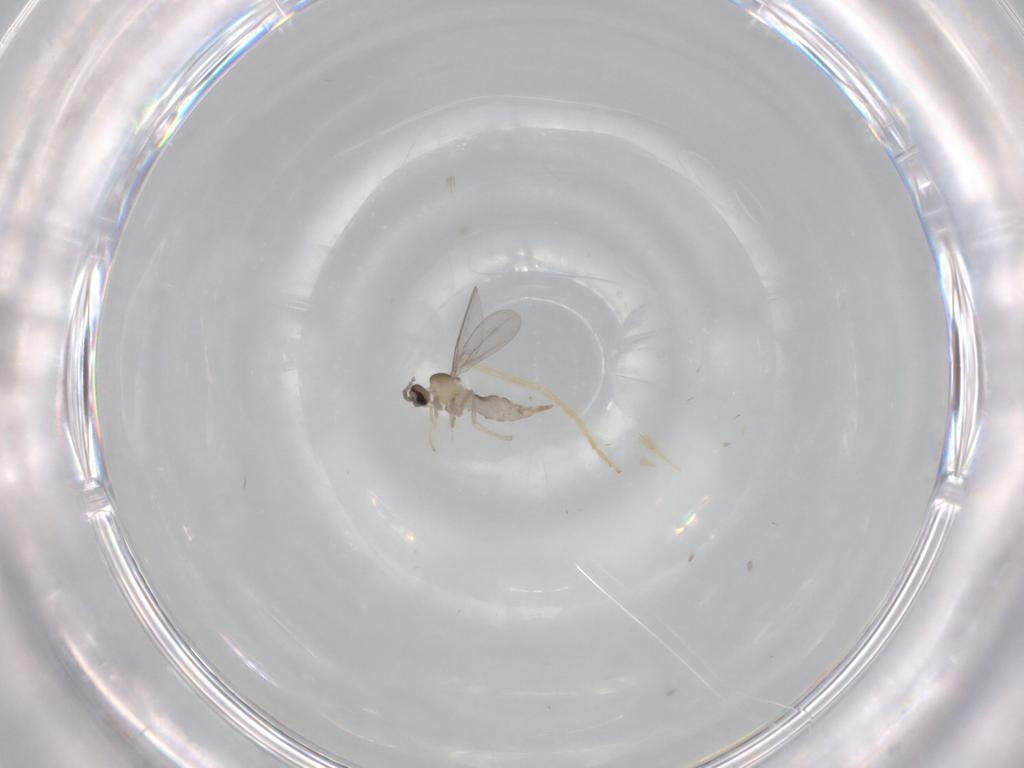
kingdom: Animalia
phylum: Arthropoda
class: Insecta
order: Diptera
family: Cecidomyiidae
